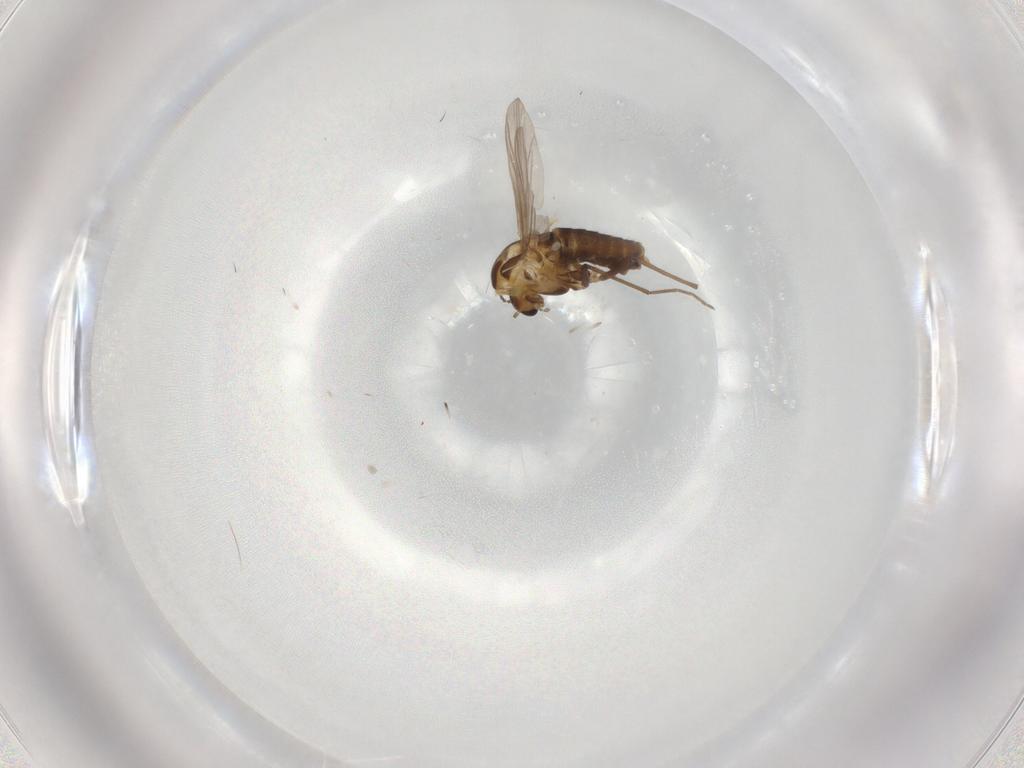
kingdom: Animalia
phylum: Arthropoda
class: Insecta
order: Diptera
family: Chironomidae
